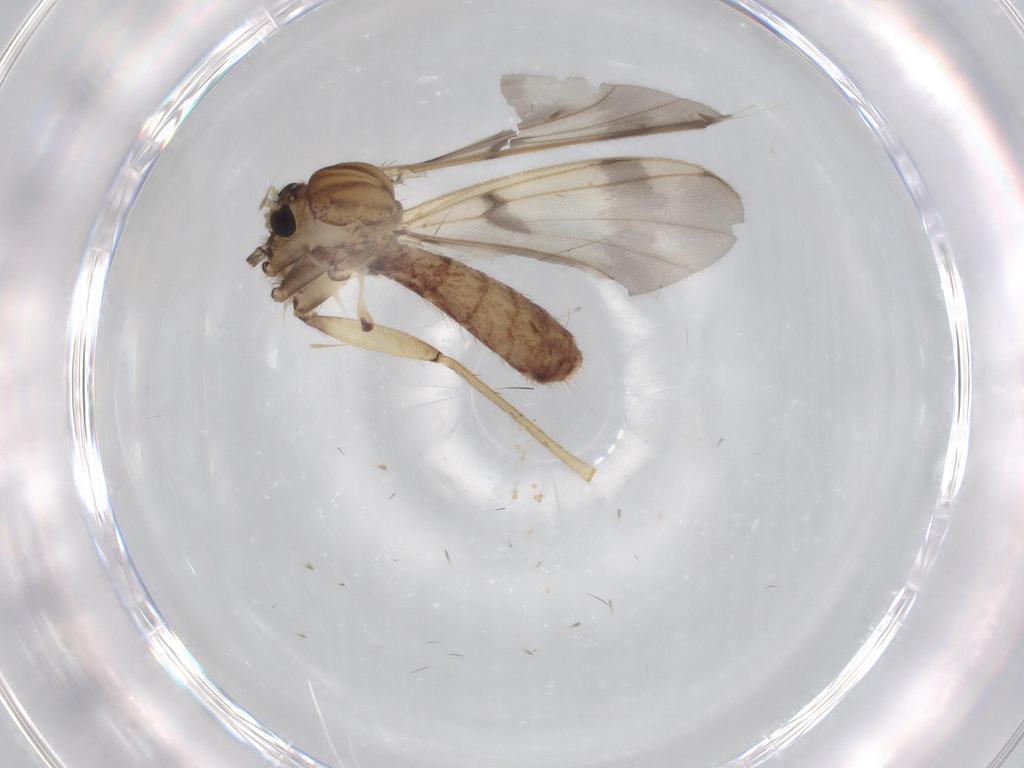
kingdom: Animalia
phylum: Arthropoda
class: Insecta
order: Diptera
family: Mycetophilidae
